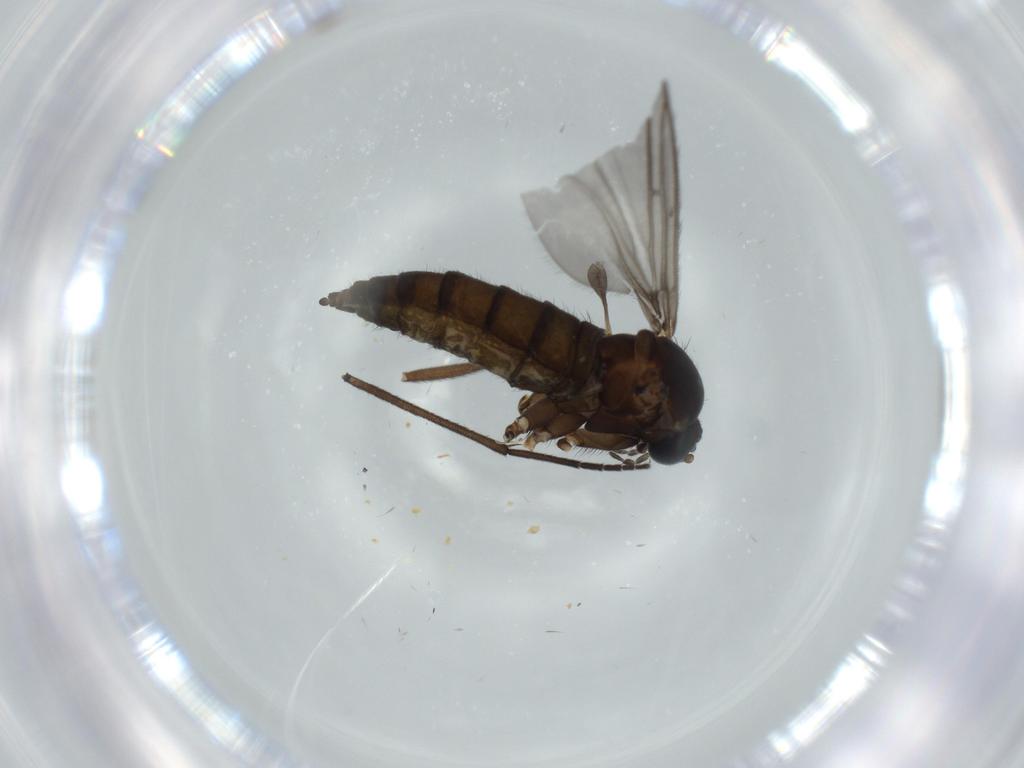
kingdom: Animalia
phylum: Arthropoda
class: Insecta
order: Diptera
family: Sciaridae
